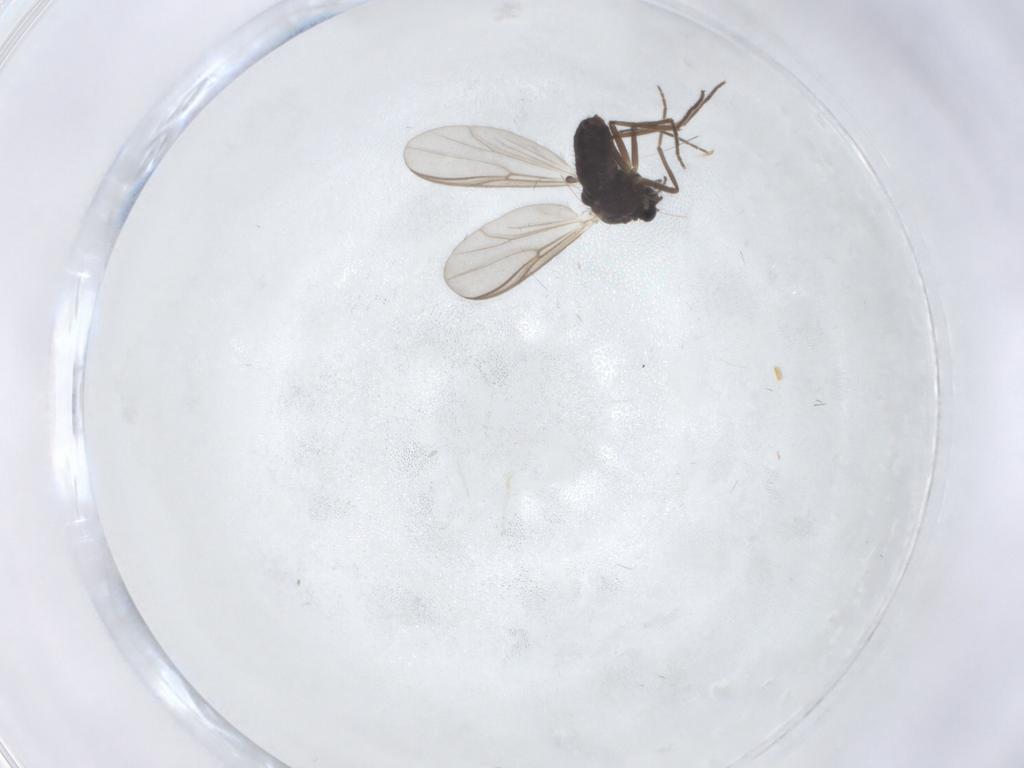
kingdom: Animalia
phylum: Arthropoda
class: Insecta
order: Diptera
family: Chironomidae
